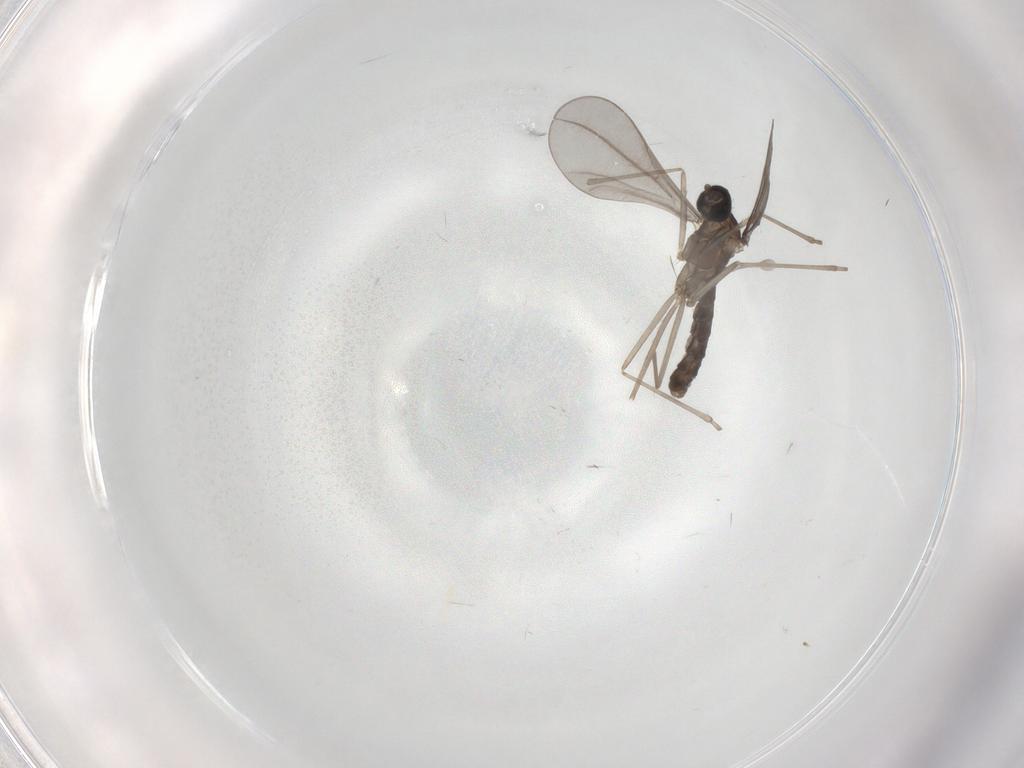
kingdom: Animalia
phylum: Arthropoda
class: Insecta
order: Diptera
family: Cecidomyiidae
